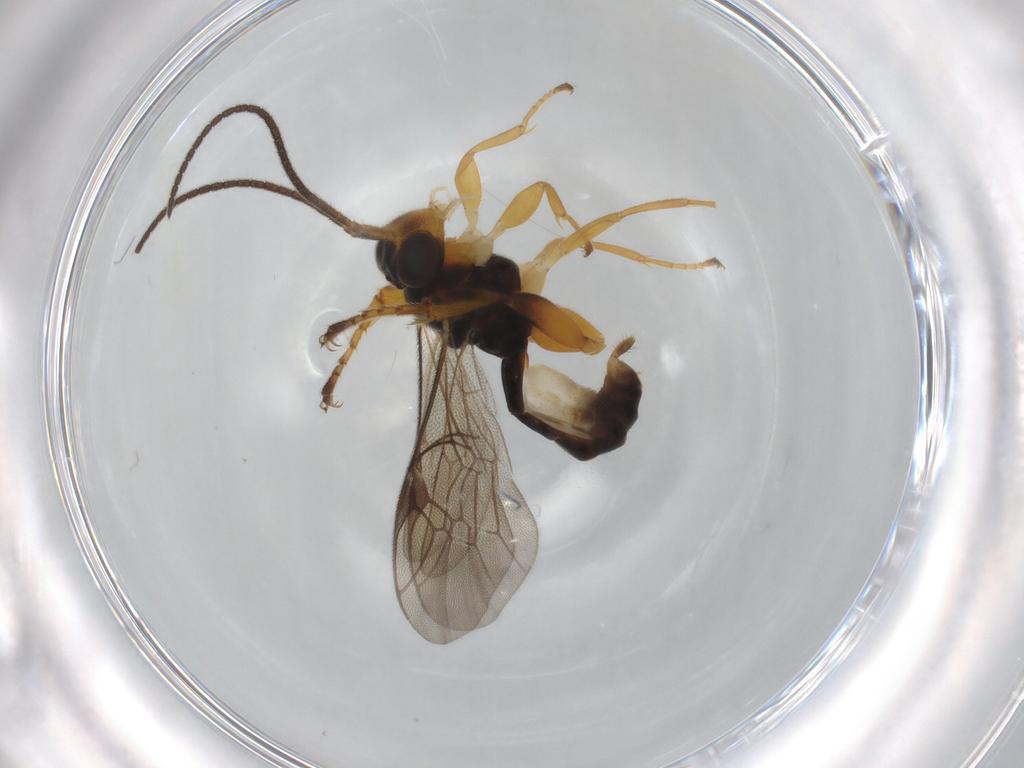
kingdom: Animalia
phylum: Arthropoda
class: Insecta
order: Hymenoptera
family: Ichneumonidae
